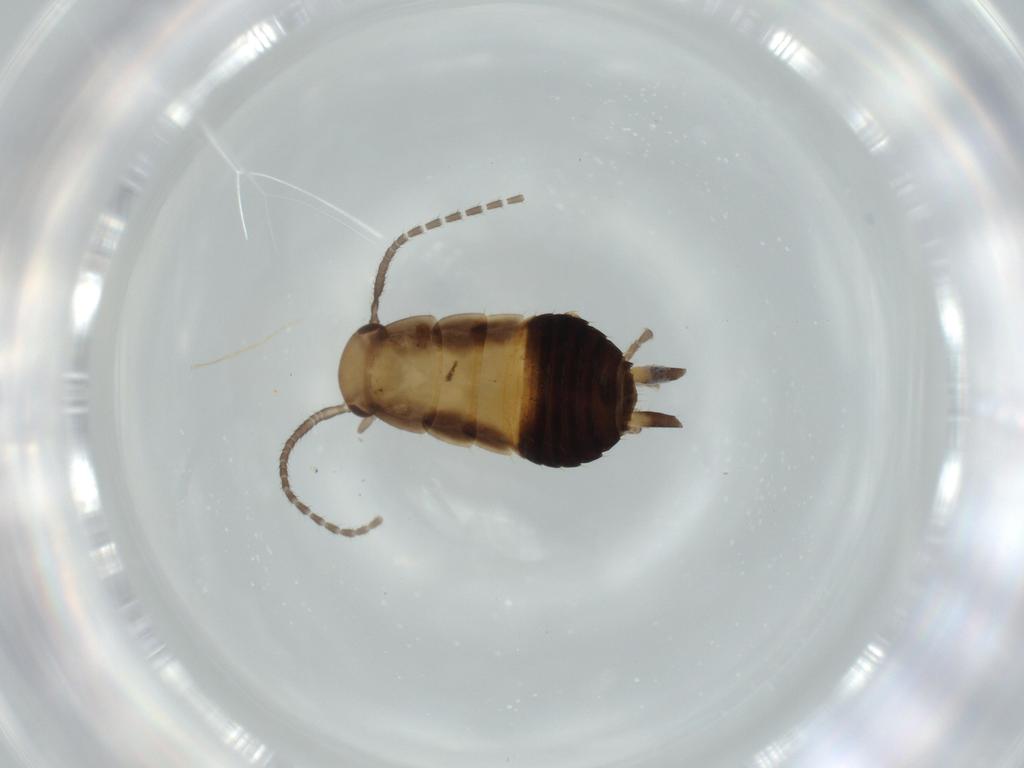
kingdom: Animalia
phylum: Arthropoda
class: Insecta
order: Blattodea
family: Ectobiidae
